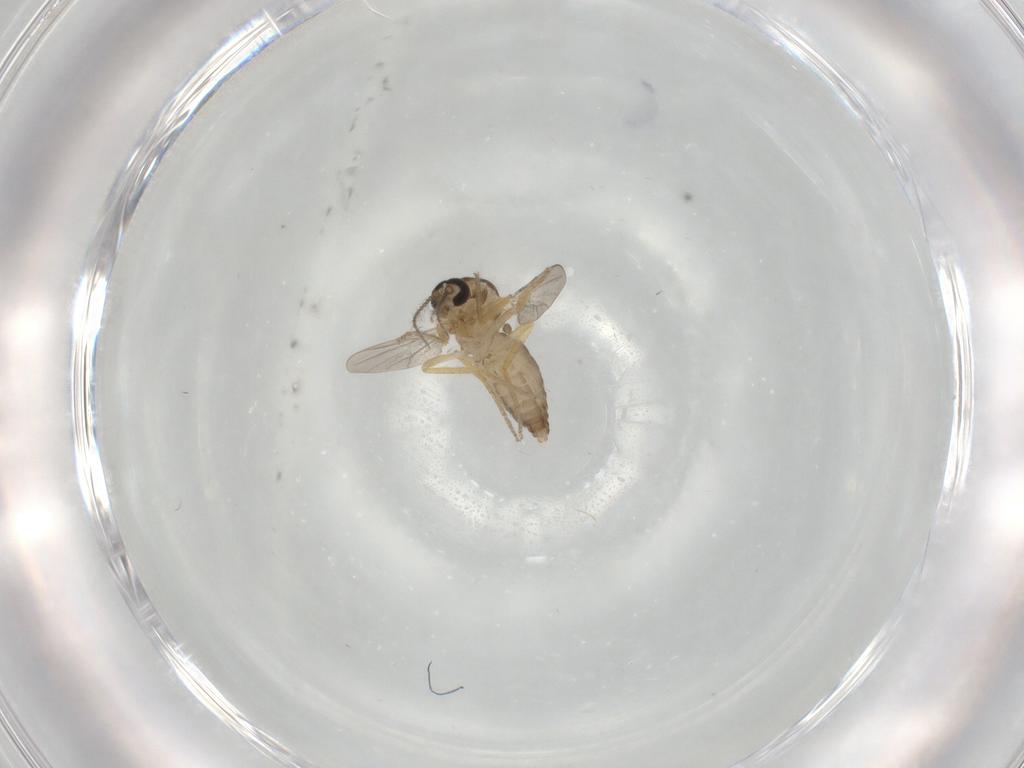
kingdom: Animalia
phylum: Arthropoda
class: Insecta
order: Diptera
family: Ceratopogonidae
